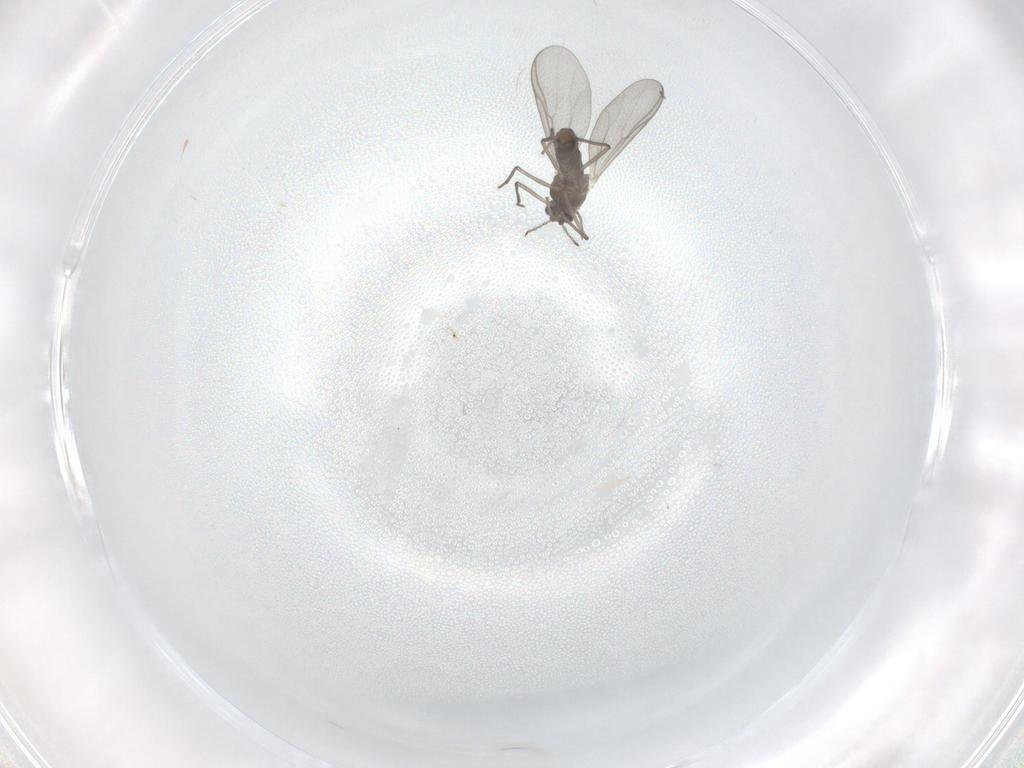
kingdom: Animalia
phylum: Arthropoda
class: Insecta
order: Diptera
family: Chironomidae
